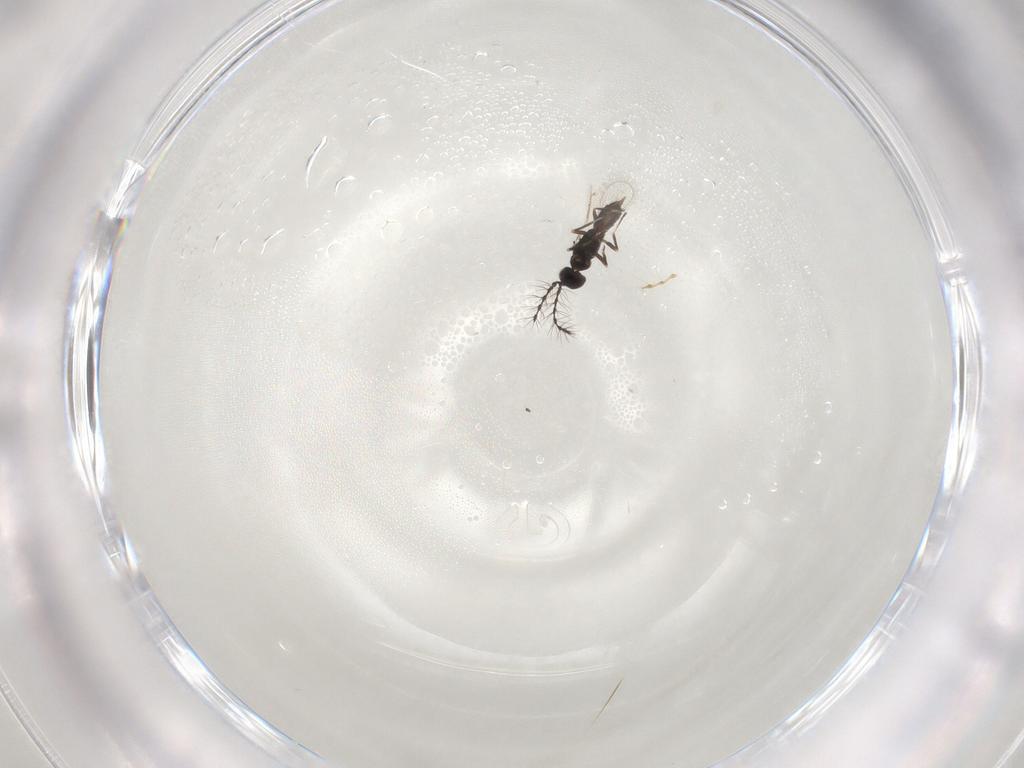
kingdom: Animalia
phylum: Arthropoda
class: Insecta
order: Hymenoptera
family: Eulophidae
